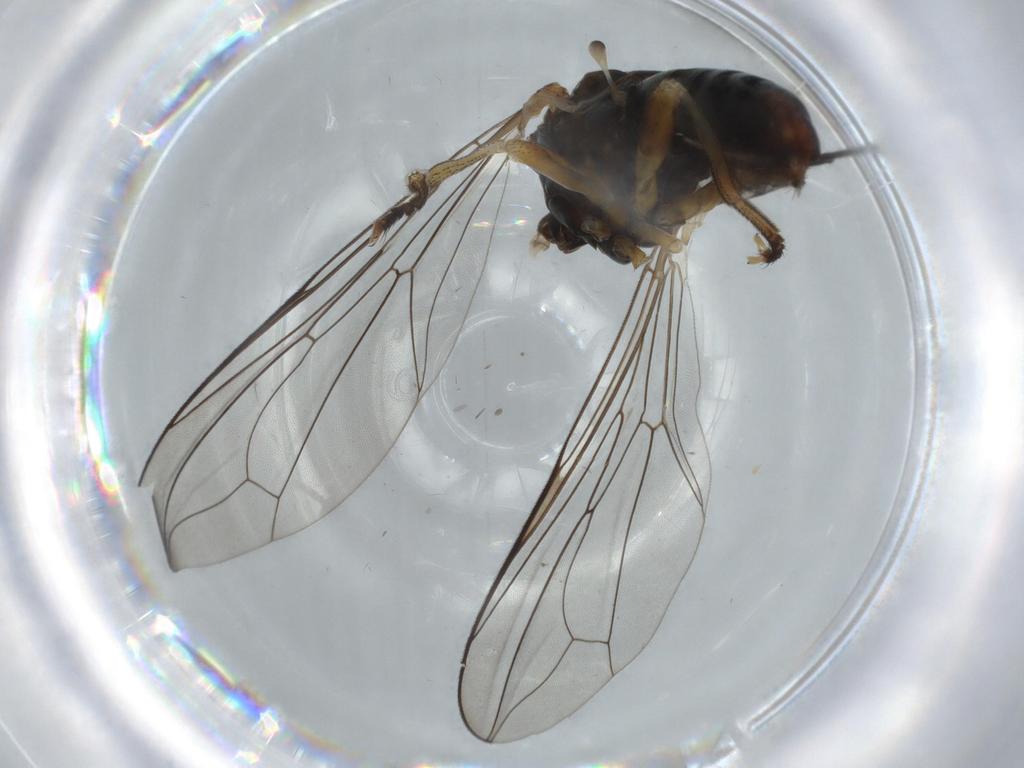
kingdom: Animalia
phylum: Arthropoda
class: Insecta
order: Diptera
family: Pipunculidae
